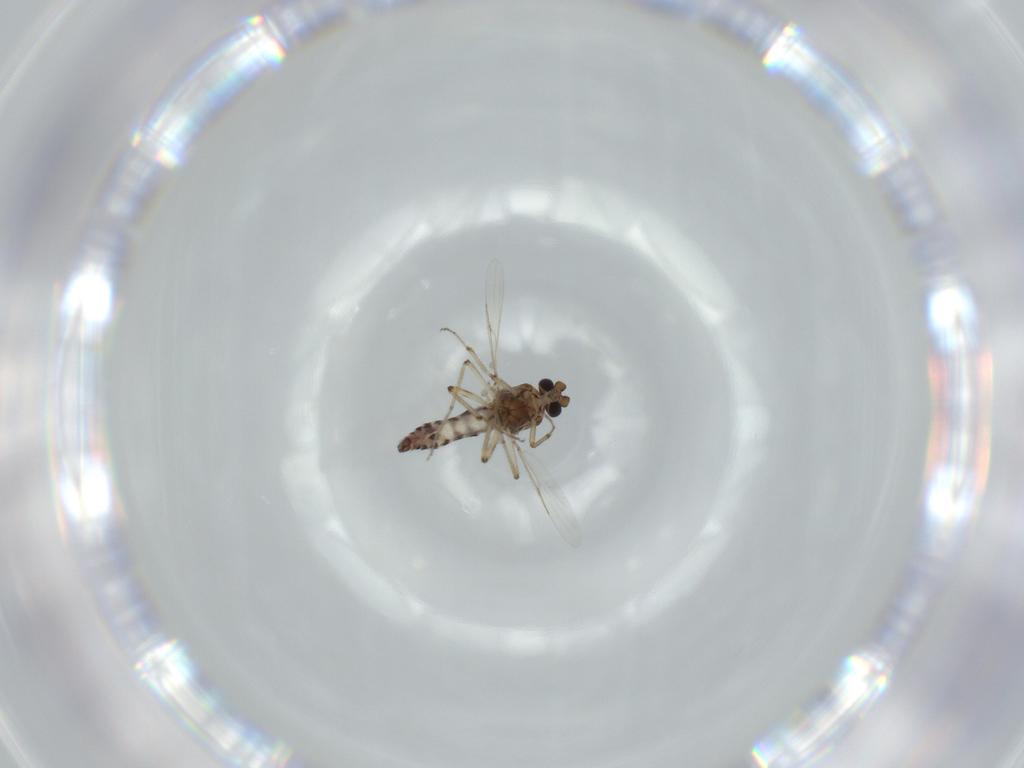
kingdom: Animalia
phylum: Arthropoda
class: Insecta
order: Diptera
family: Ceratopogonidae
